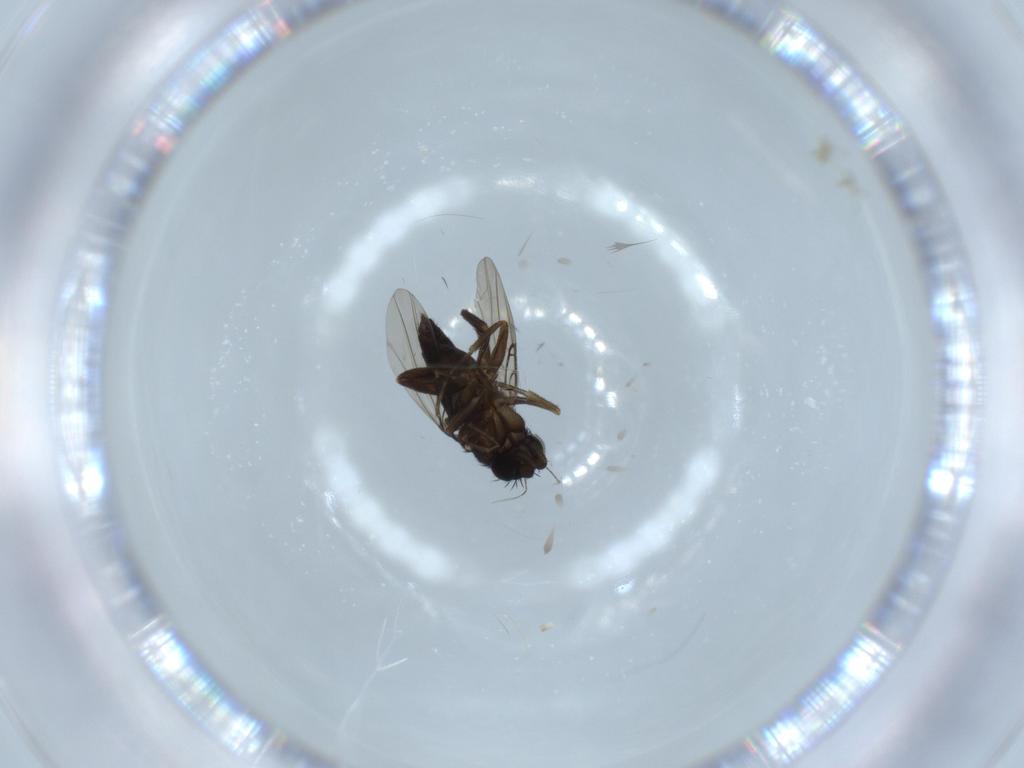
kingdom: Animalia
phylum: Arthropoda
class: Insecta
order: Diptera
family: Phoridae
